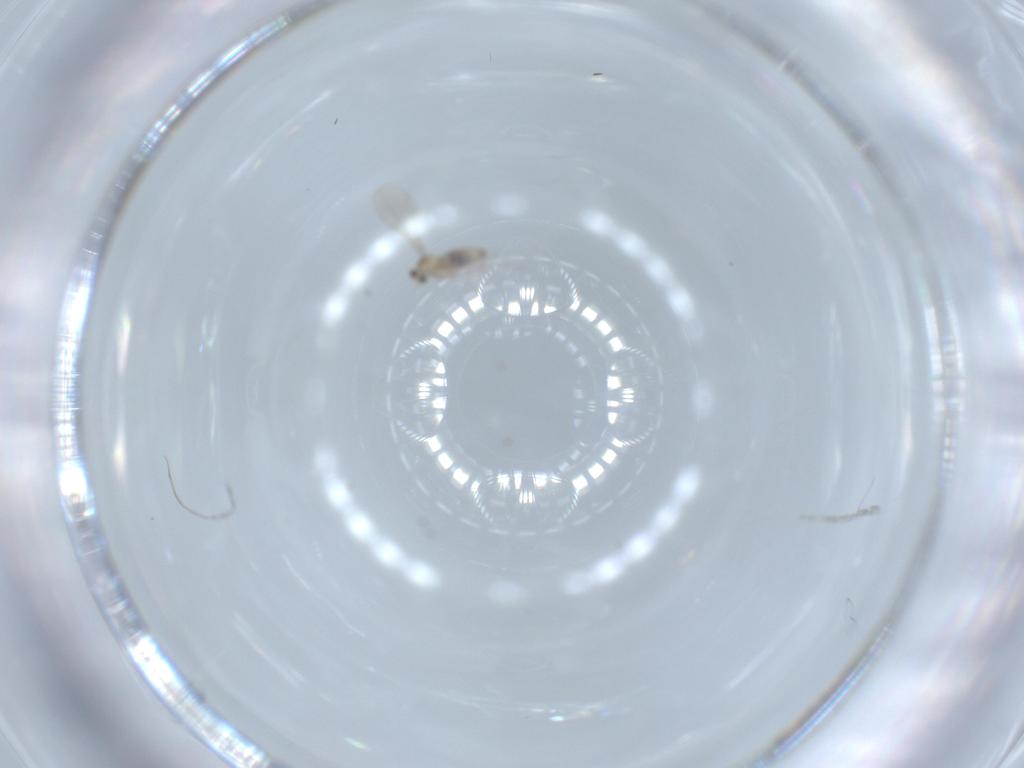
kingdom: Animalia
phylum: Arthropoda
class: Insecta
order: Diptera
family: Cecidomyiidae
